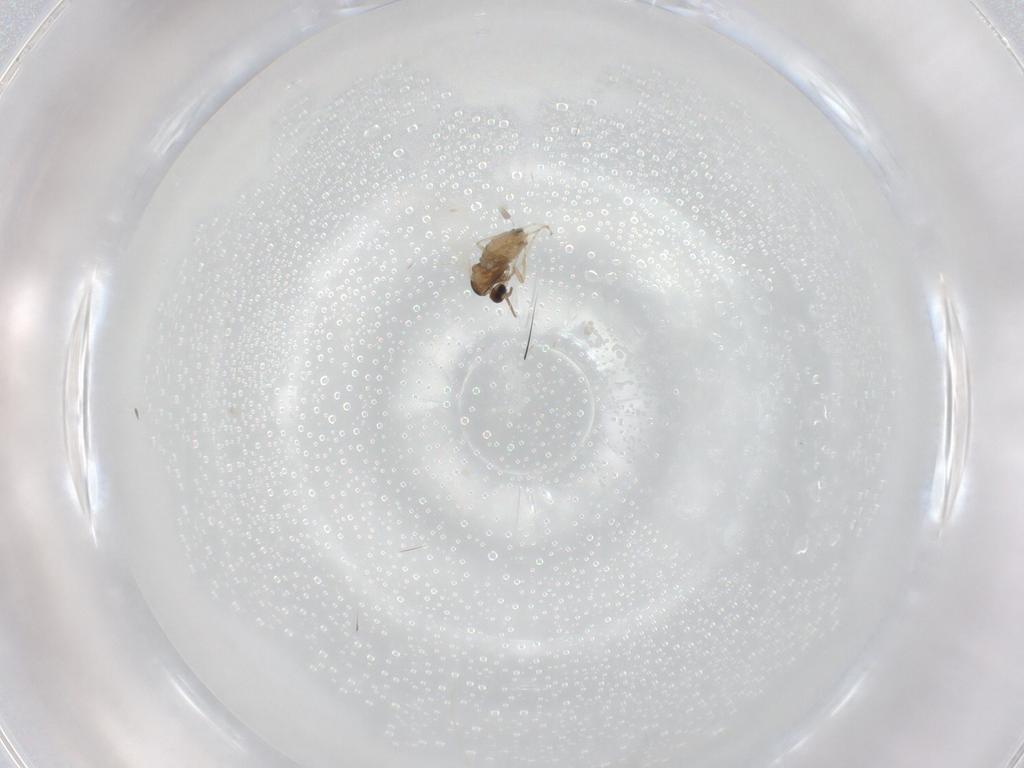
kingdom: Animalia
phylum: Arthropoda
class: Insecta
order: Diptera
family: Cecidomyiidae
